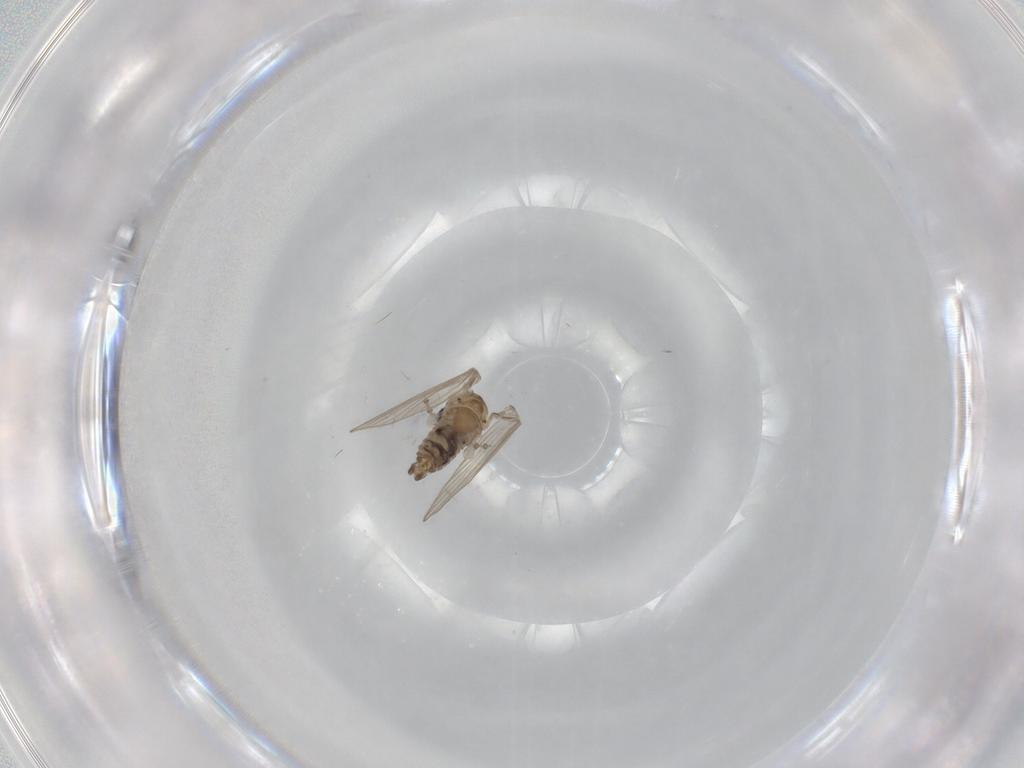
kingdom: Animalia
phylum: Arthropoda
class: Insecta
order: Diptera
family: Psychodidae
